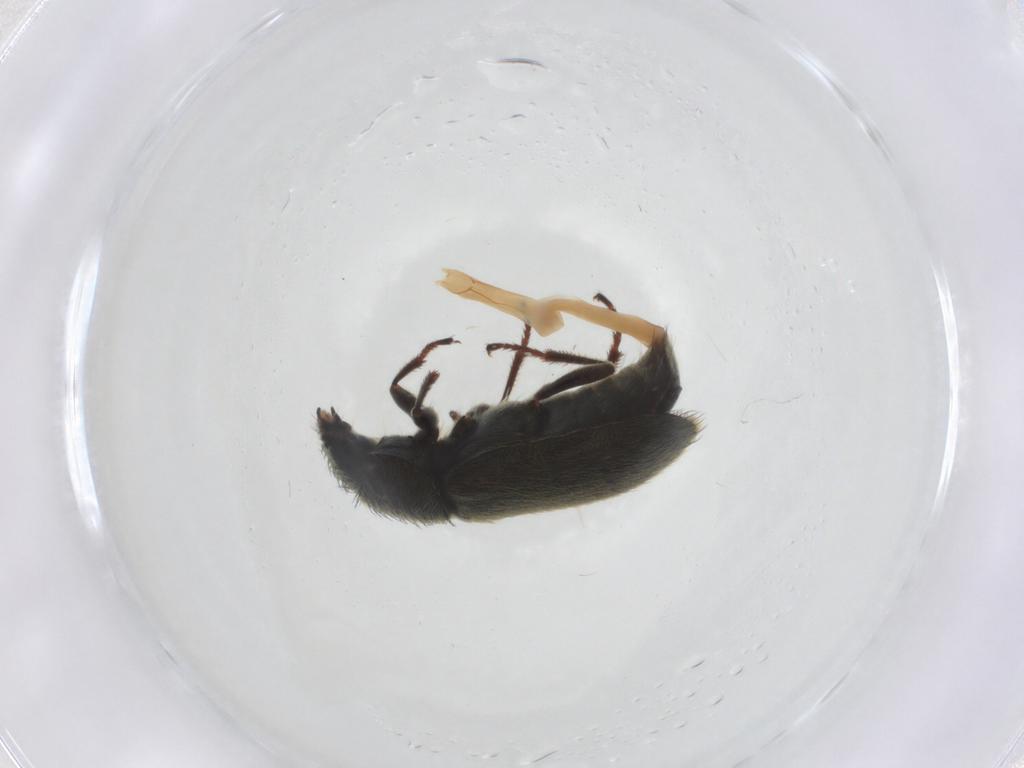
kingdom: Animalia
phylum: Arthropoda
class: Insecta
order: Coleoptera
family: Melyridae
